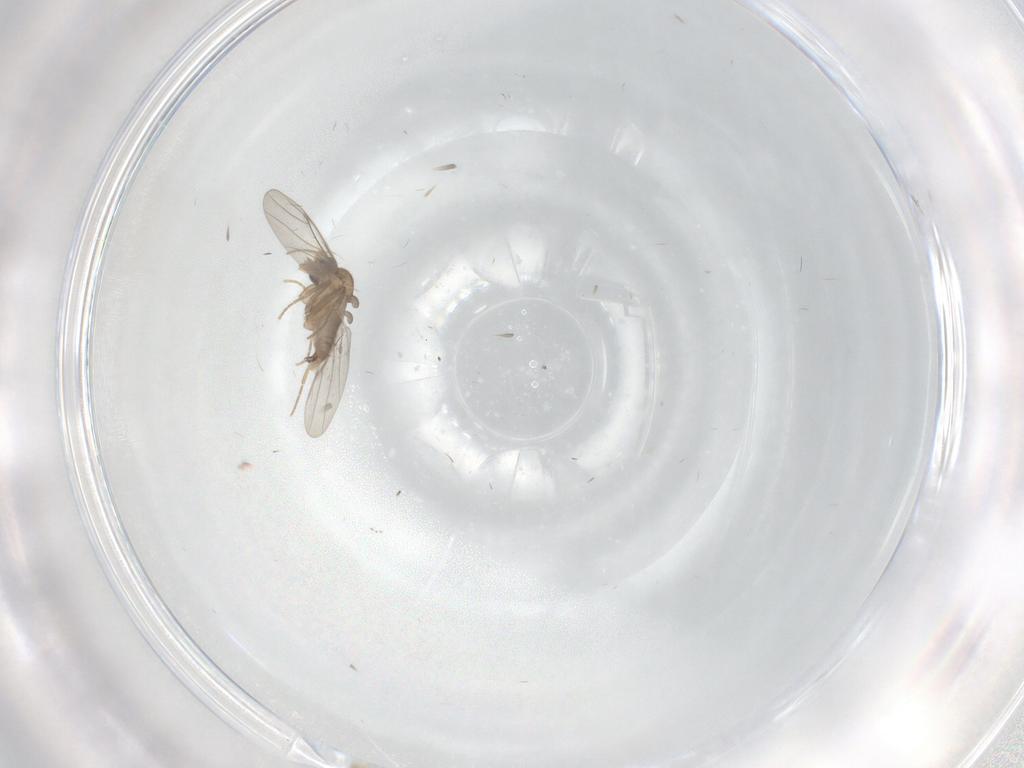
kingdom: Animalia
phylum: Arthropoda
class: Insecta
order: Diptera
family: Cecidomyiidae
